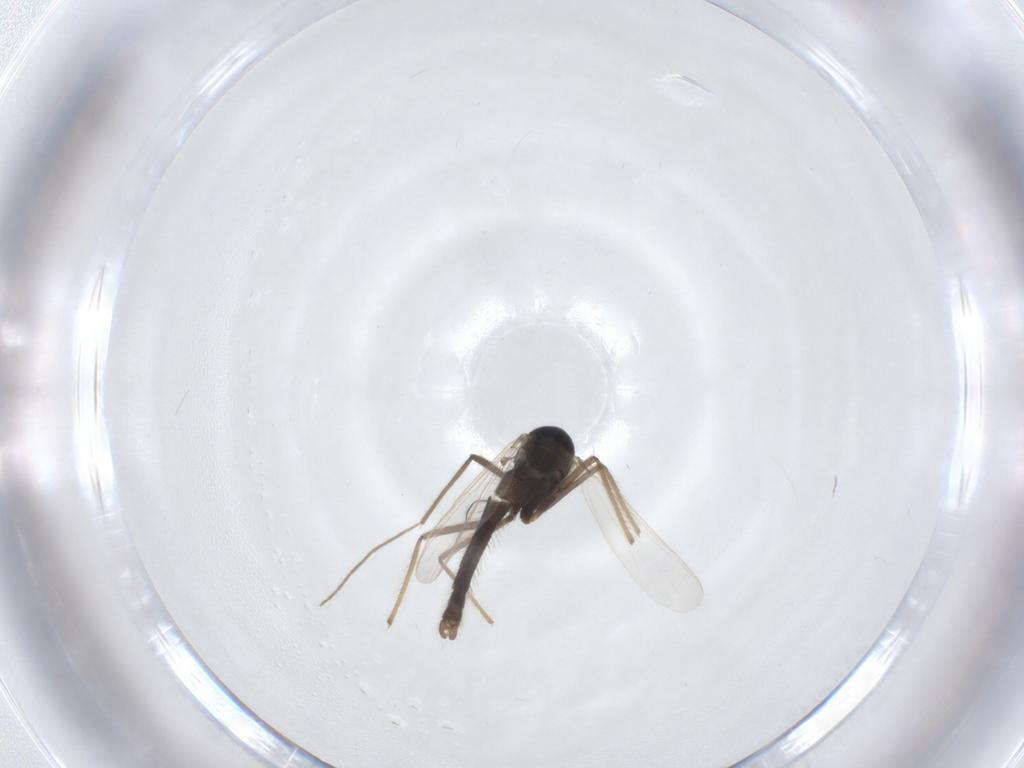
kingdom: Animalia
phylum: Arthropoda
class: Insecta
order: Diptera
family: Chironomidae
